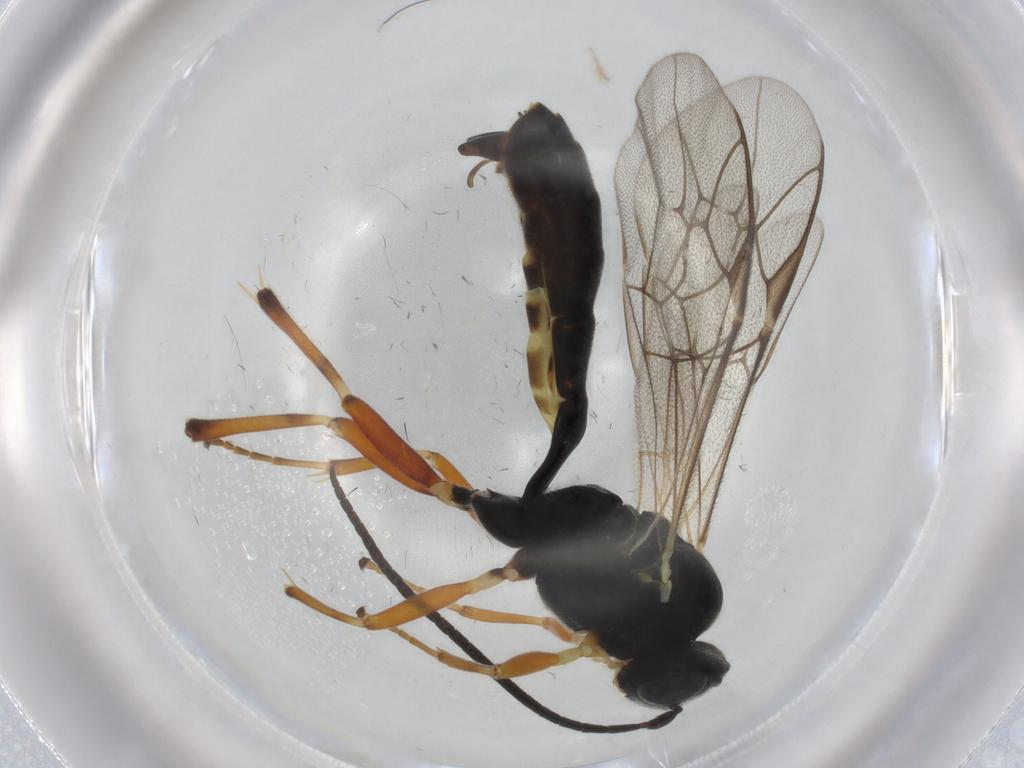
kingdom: Animalia
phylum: Arthropoda
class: Insecta
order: Hymenoptera
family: Ichneumonidae
